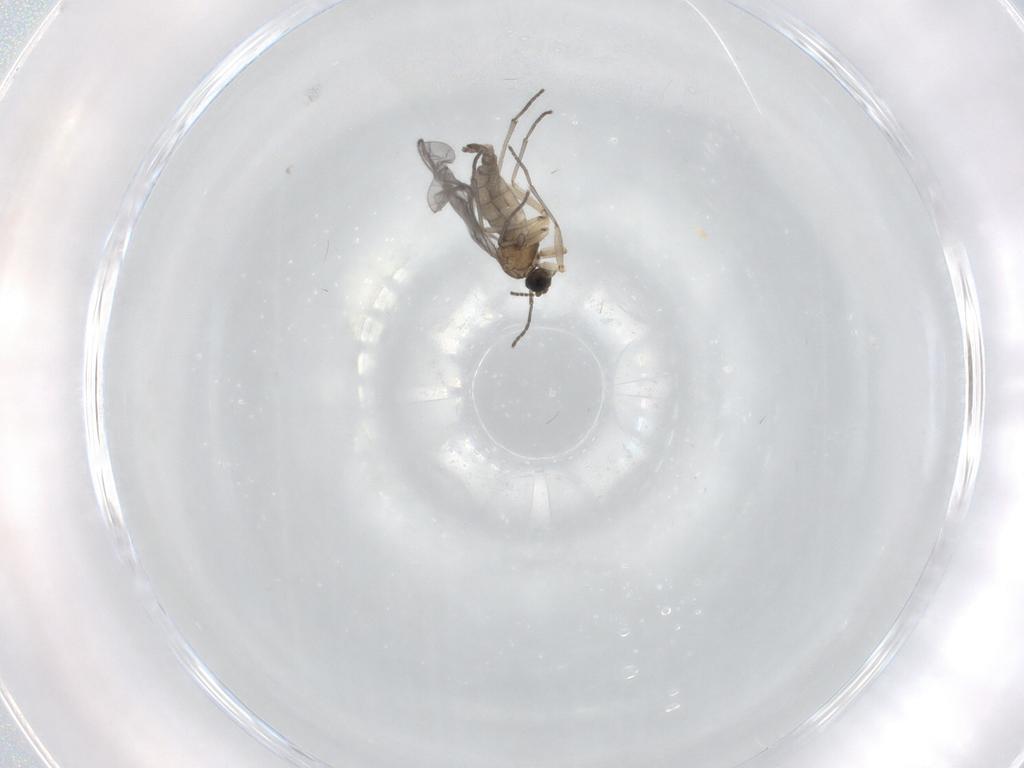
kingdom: Animalia
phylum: Arthropoda
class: Insecta
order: Diptera
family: Sciaridae
